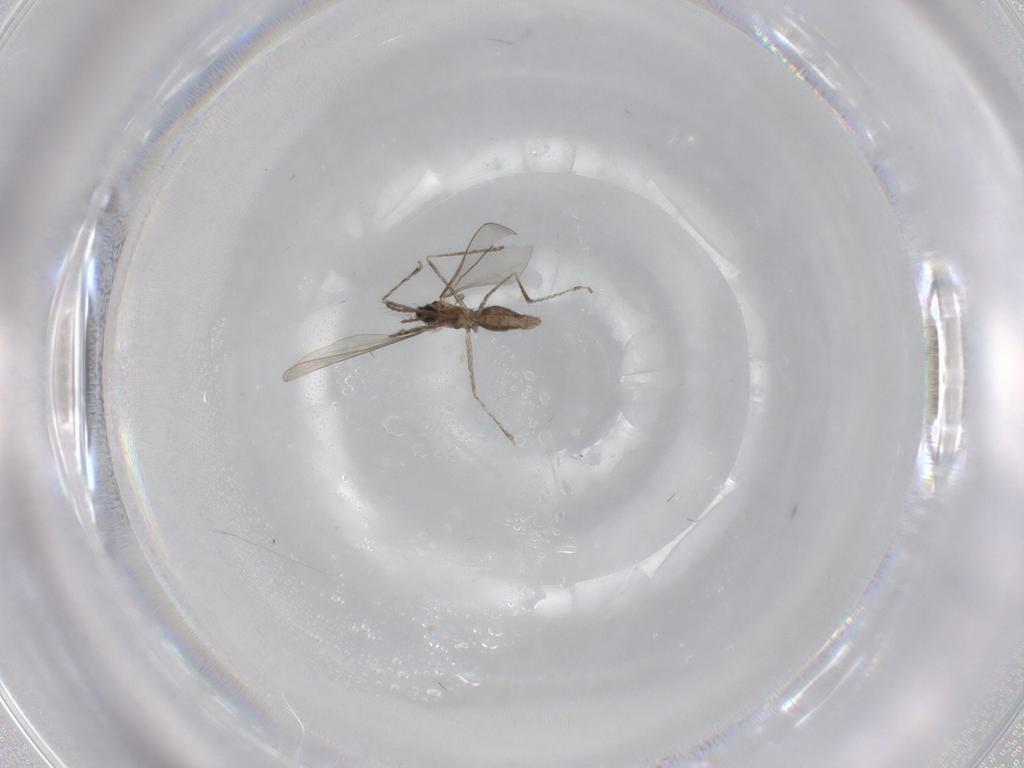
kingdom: Animalia
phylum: Arthropoda
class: Insecta
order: Diptera
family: Cecidomyiidae
